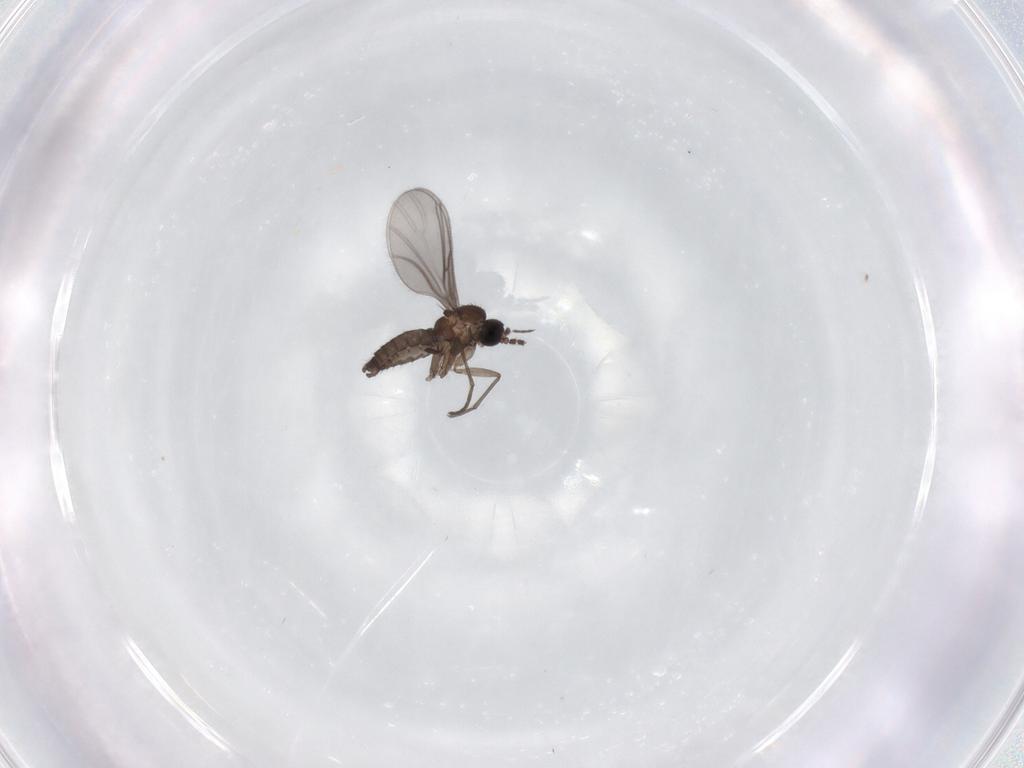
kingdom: Animalia
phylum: Arthropoda
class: Insecta
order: Diptera
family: Sciaridae
